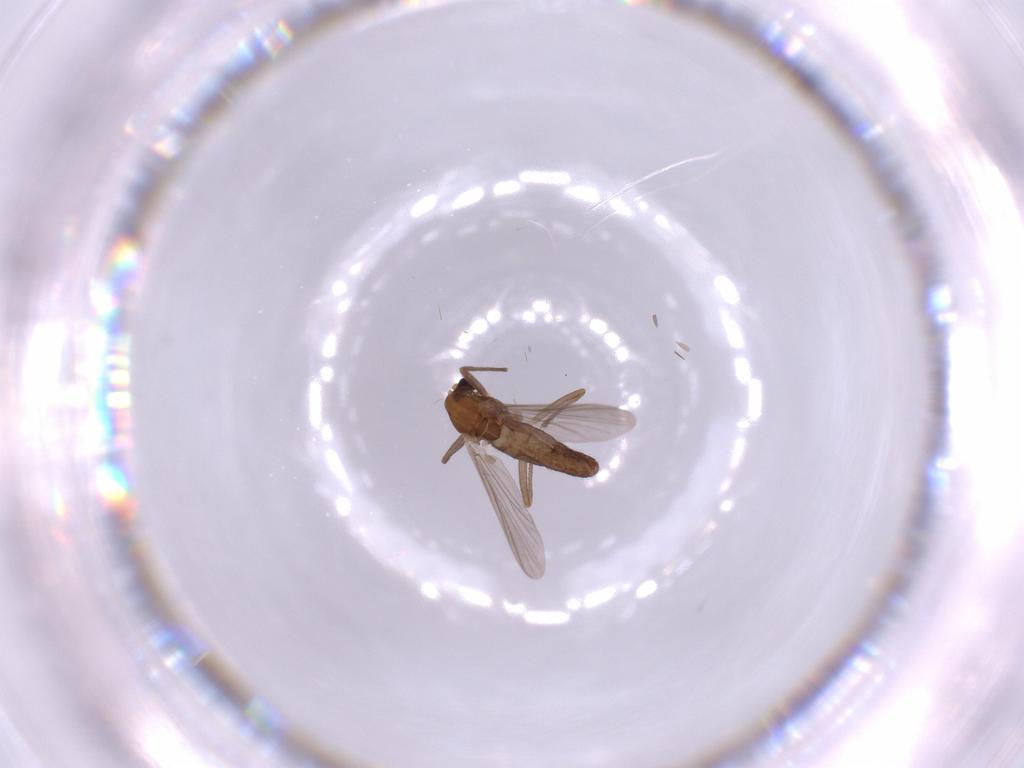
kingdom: Animalia
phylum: Arthropoda
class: Insecta
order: Diptera
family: Chironomidae
